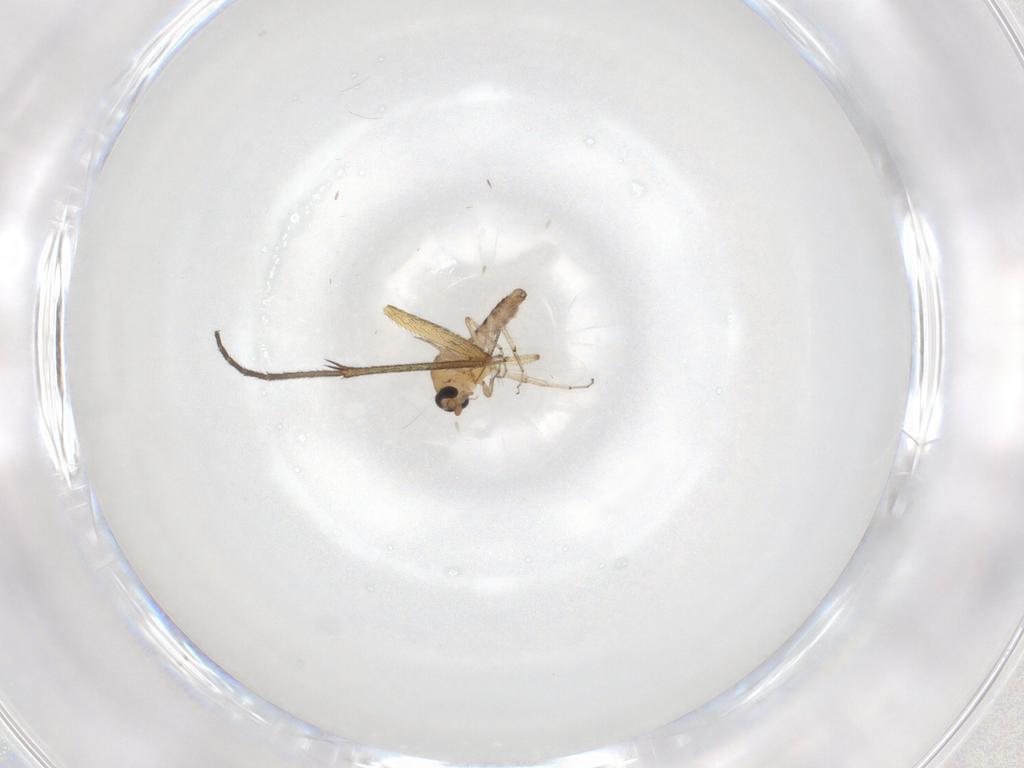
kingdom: Animalia
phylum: Arthropoda
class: Insecta
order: Diptera
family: Ceratopogonidae
